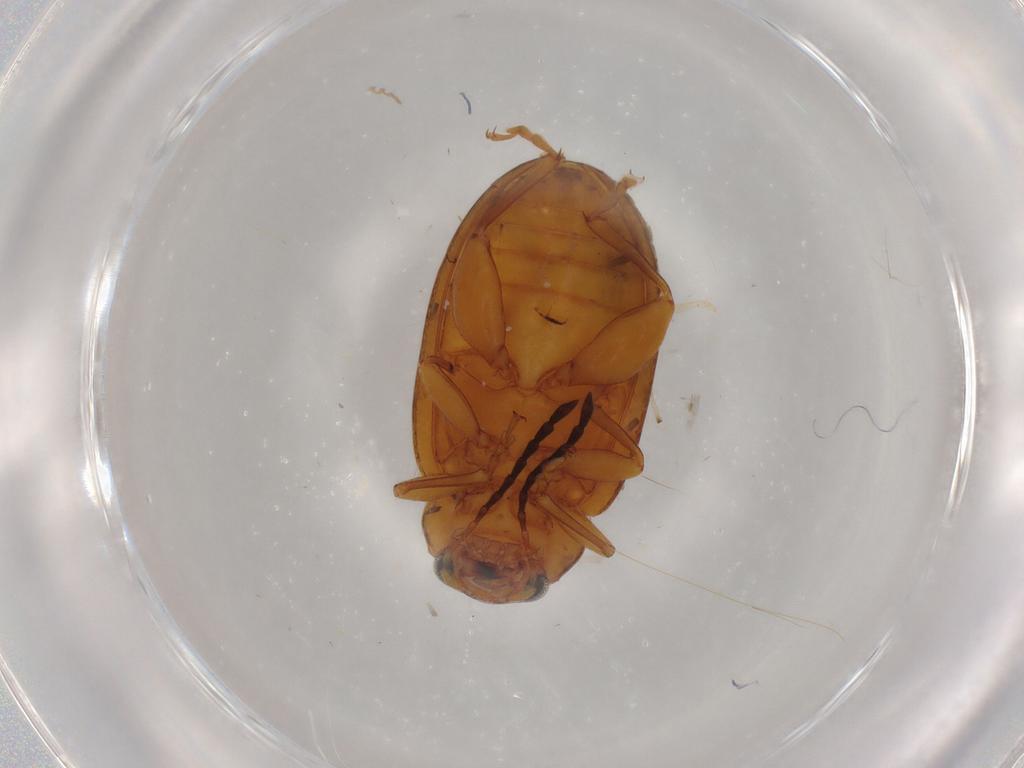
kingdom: Animalia
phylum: Arthropoda
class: Insecta
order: Coleoptera
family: Chrysomelidae
